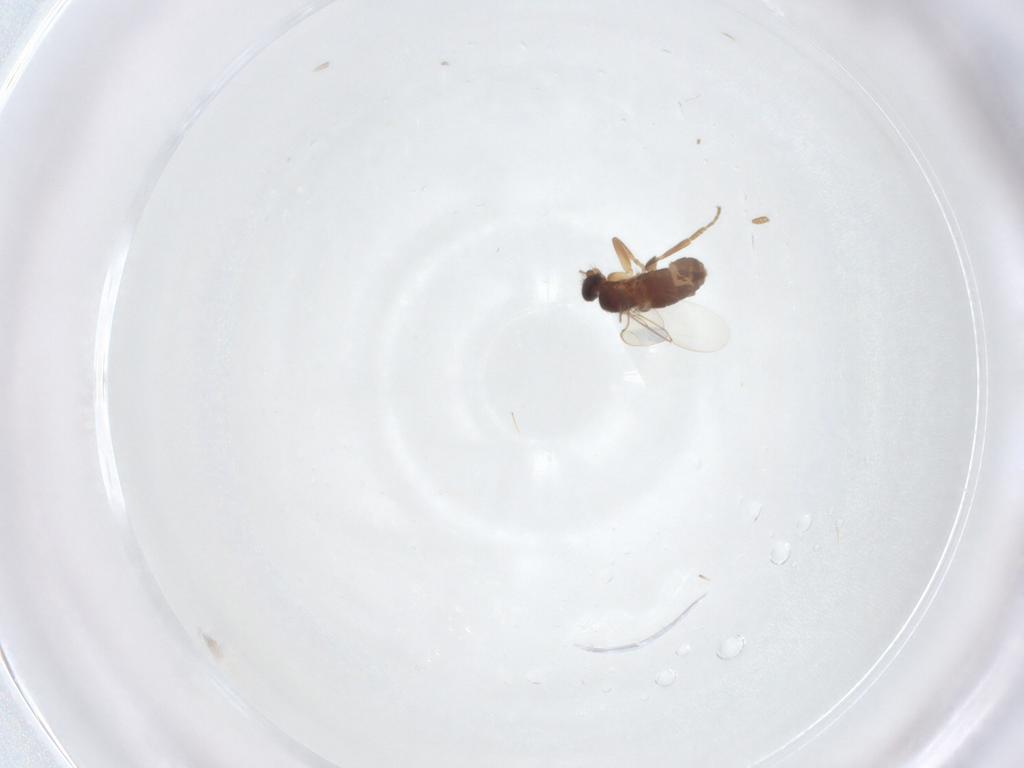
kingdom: Animalia
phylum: Arthropoda
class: Insecta
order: Diptera
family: Phoridae
